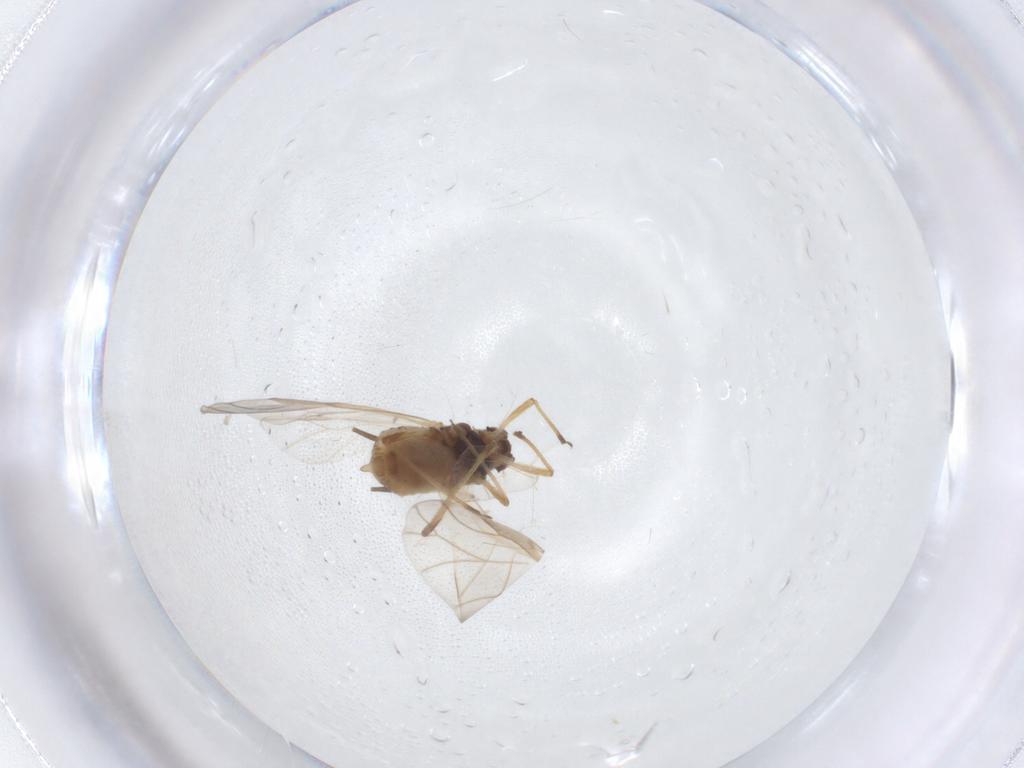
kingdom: Animalia
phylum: Arthropoda
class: Insecta
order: Hemiptera
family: Aphididae
